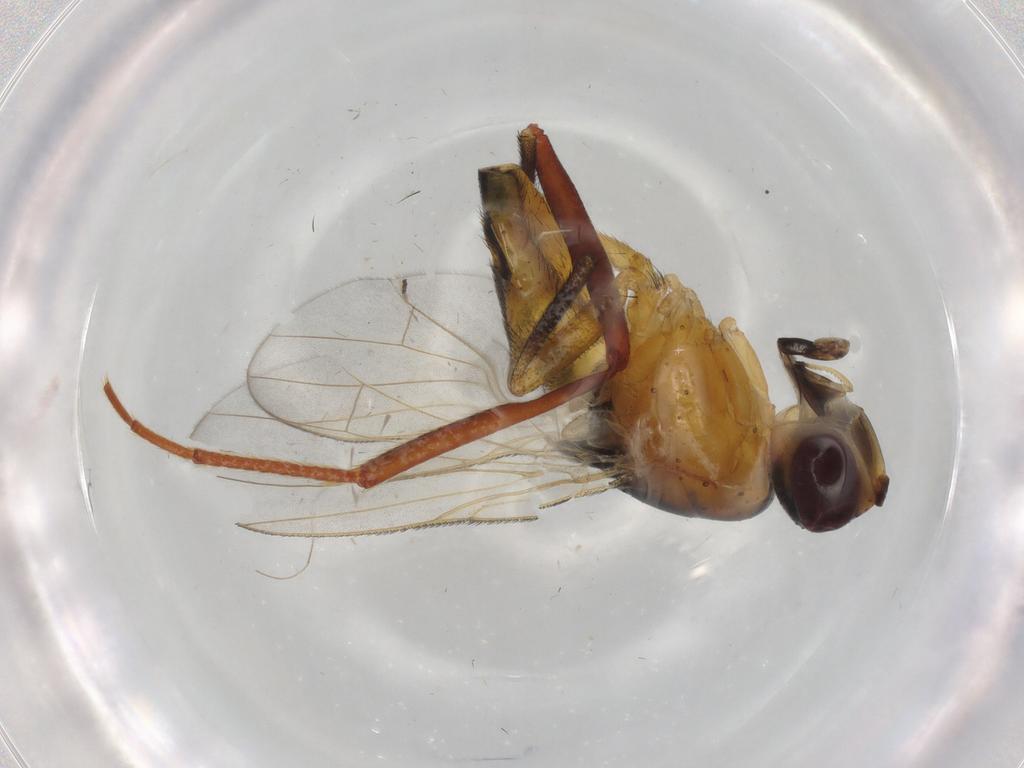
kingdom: Animalia
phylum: Arthropoda
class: Insecta
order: Diptera
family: Muscidae
